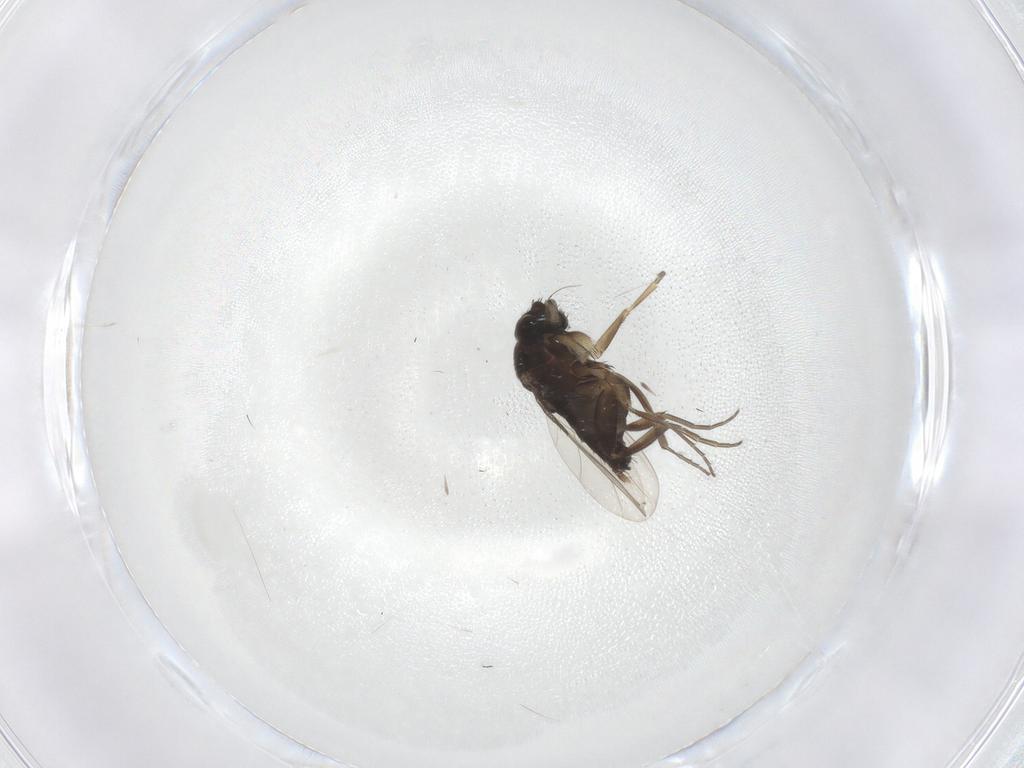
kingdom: Animalia
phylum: Arthropoda
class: Insecta
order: Diptera
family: Phoridae
